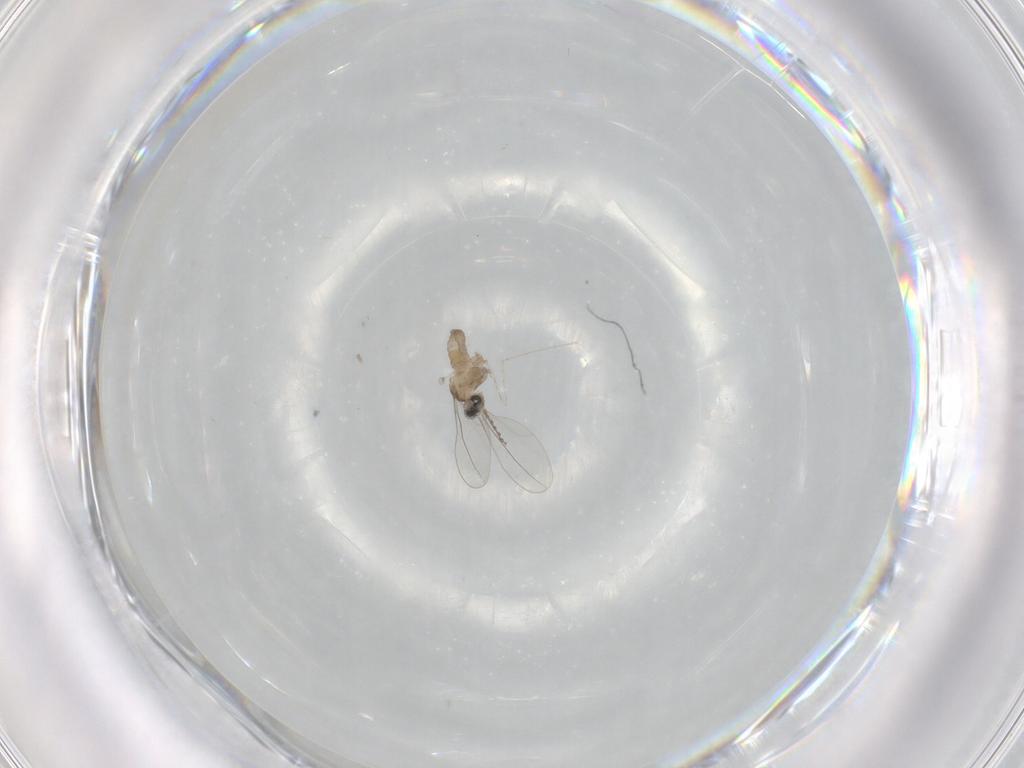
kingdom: Animalia
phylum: Arthropoda
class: Insecta
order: Diptera
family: Cecidomyiidae
